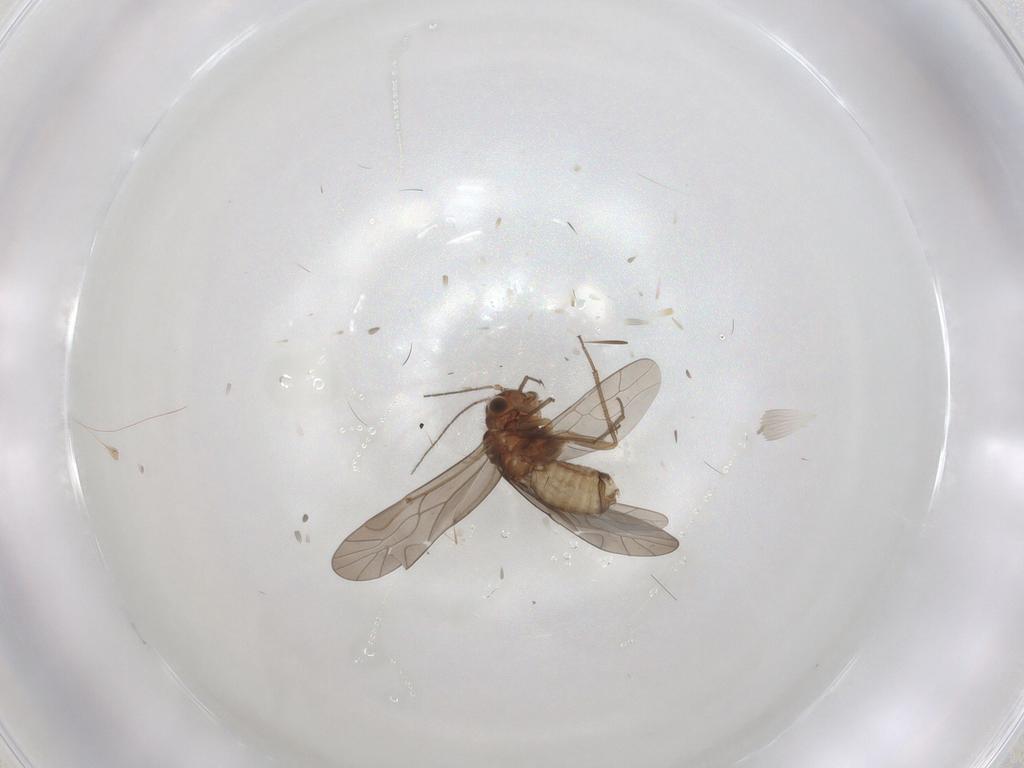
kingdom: Animalia
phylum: Arthropoda
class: Insecta
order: Psocodea
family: Lachesillidae
